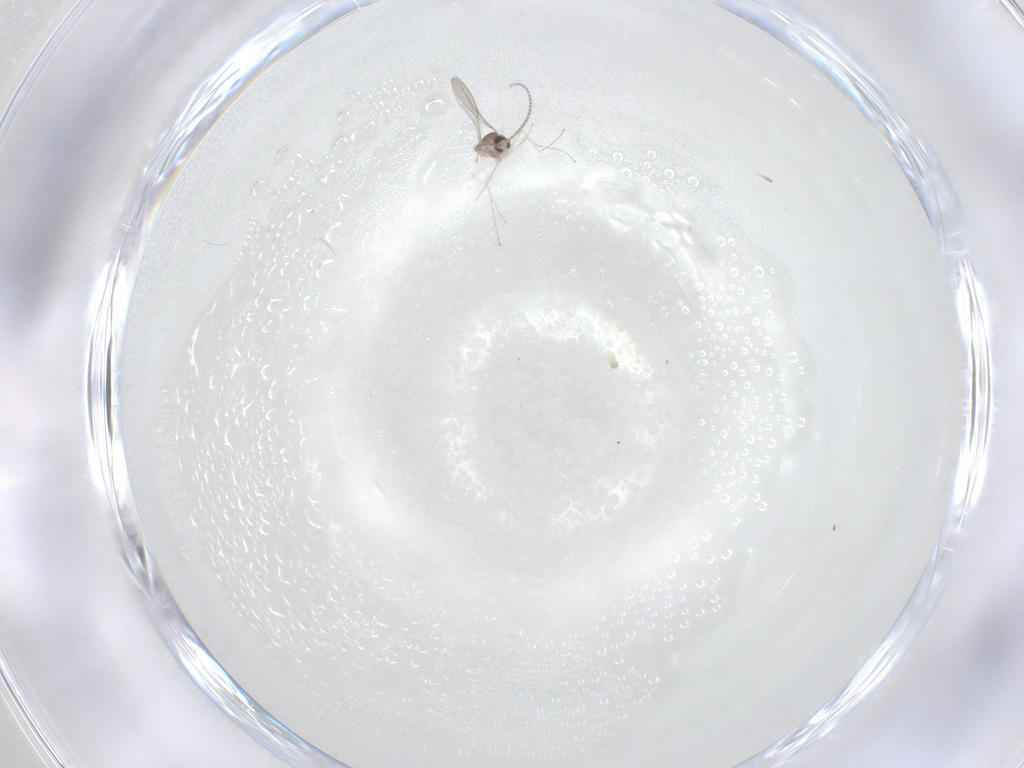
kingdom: Animalia
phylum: Arthropoda
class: Insecta
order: Diptera
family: Cecidomyiidae
